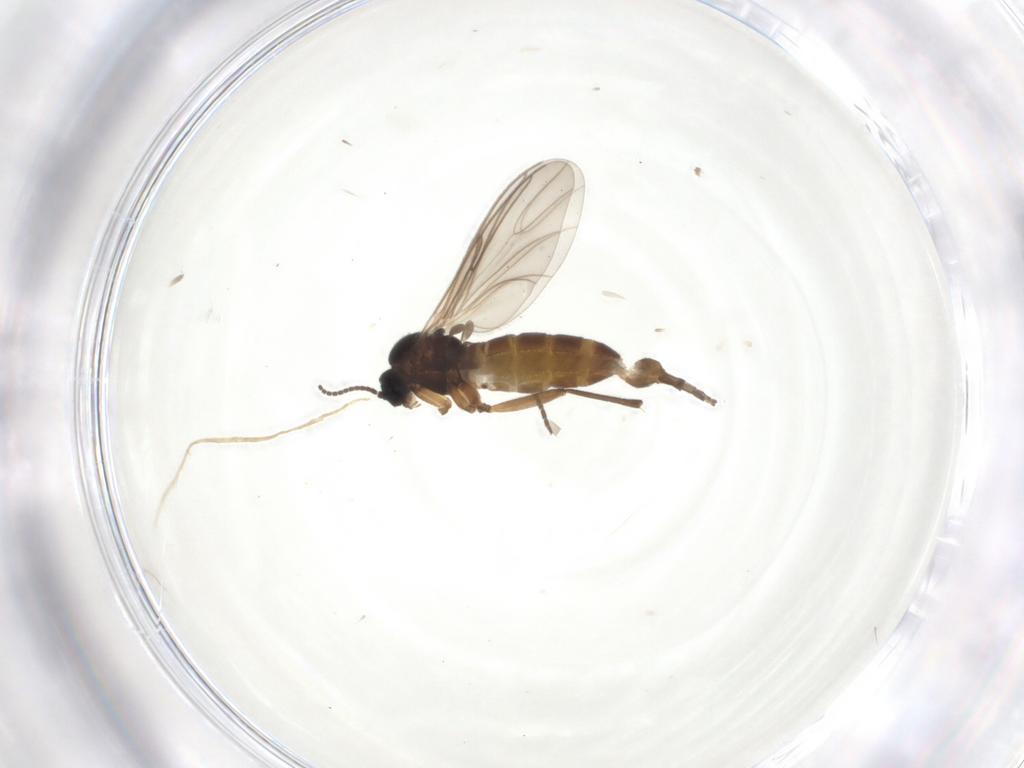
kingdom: Animalia
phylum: Arthropoda
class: Insecta
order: Diptera
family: Sciaridae
